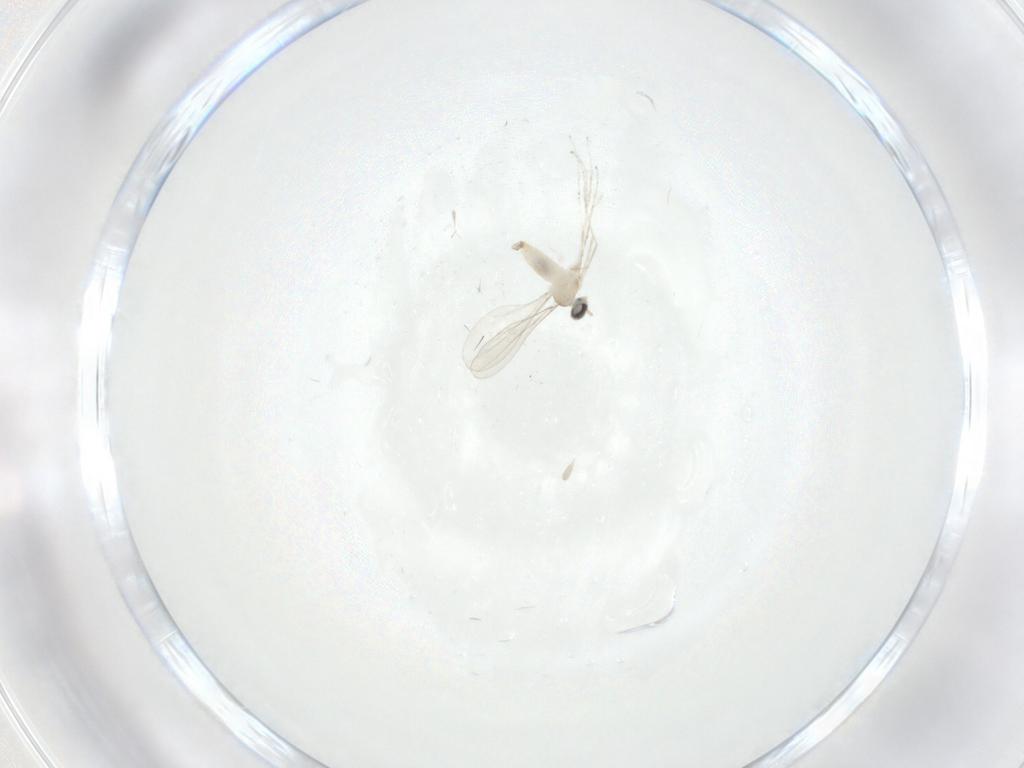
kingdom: Animalia
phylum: Arthropoda
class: Insecta
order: Diptera
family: Cecidomyiidae
